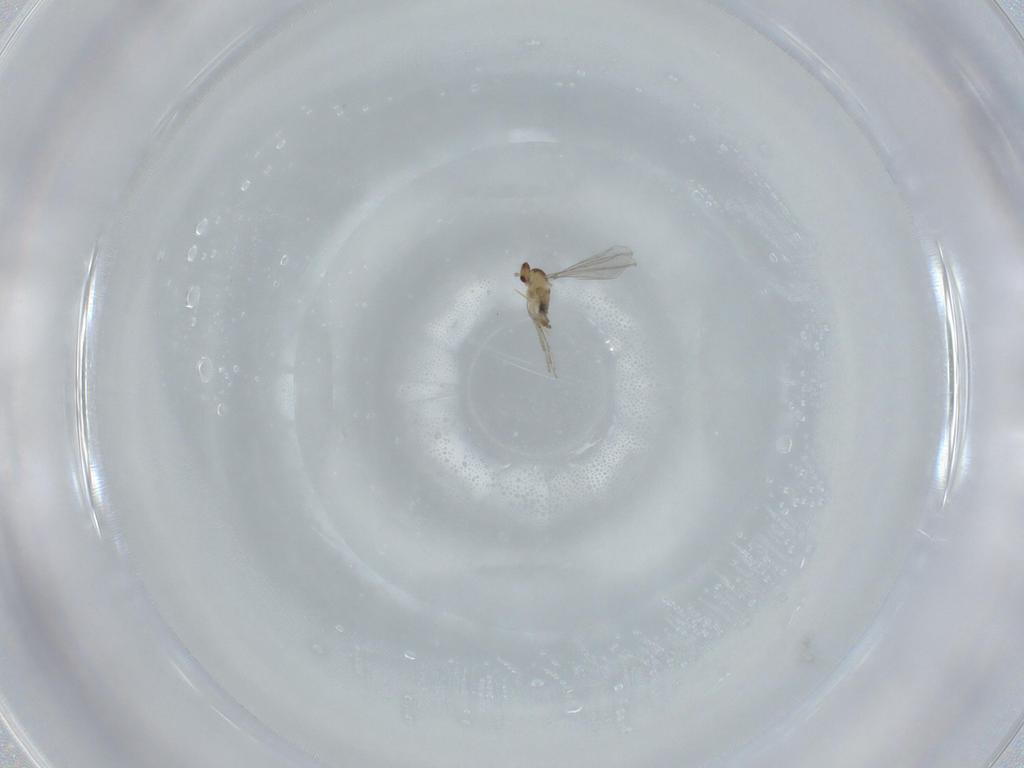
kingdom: Animalia
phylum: Arthropoda
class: Insecta
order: Diptera
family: Cecidomyiidae
